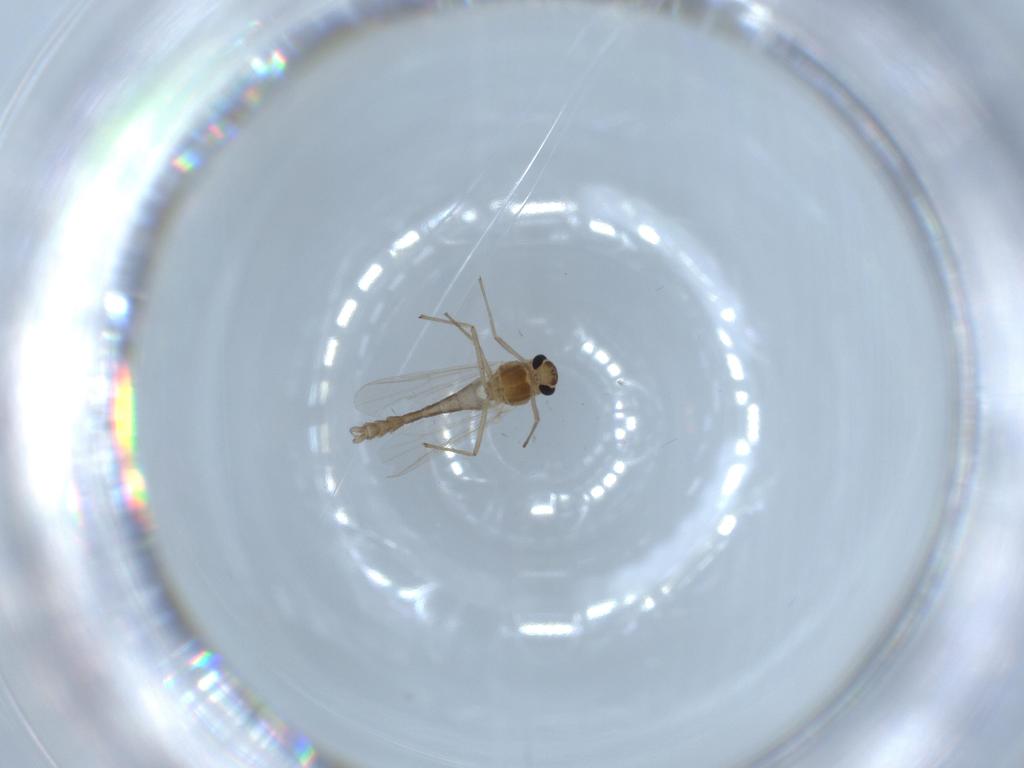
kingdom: Animalia
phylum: Arthropoda
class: Insecta
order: Diptera
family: Chironomidae
